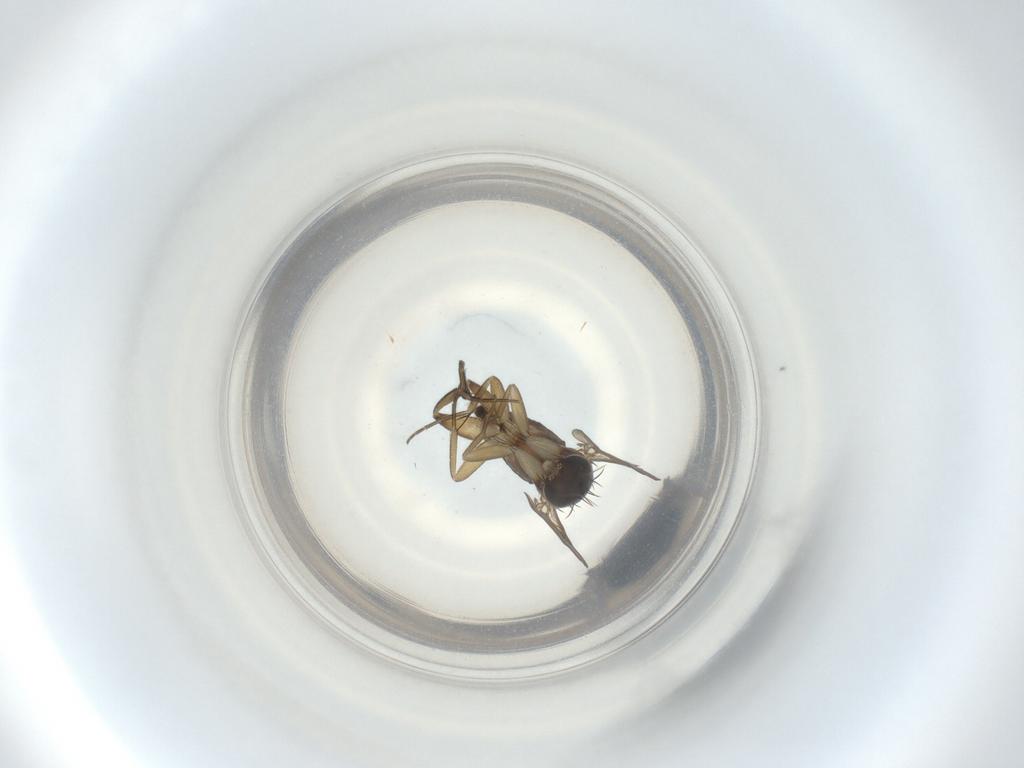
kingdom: Animalia
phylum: Arthropoda
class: Insecta
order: Diptera
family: Phoridae
